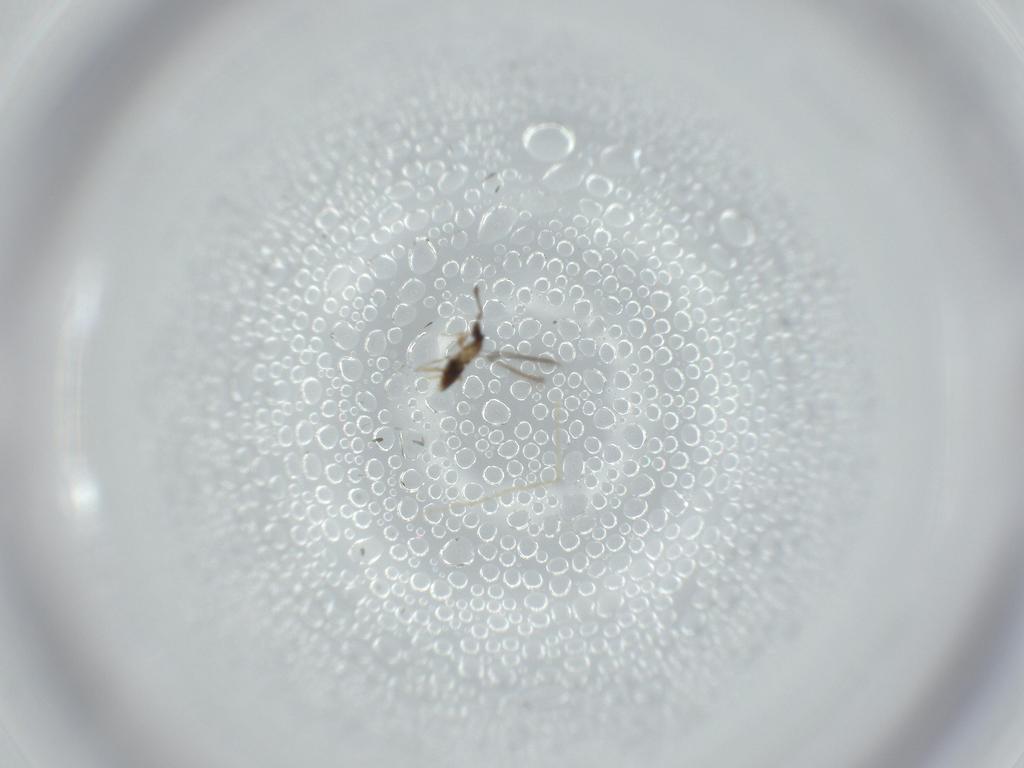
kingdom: Animalia
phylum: Arthropoda
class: Insecta
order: Hymenoptera
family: Mymaridae
